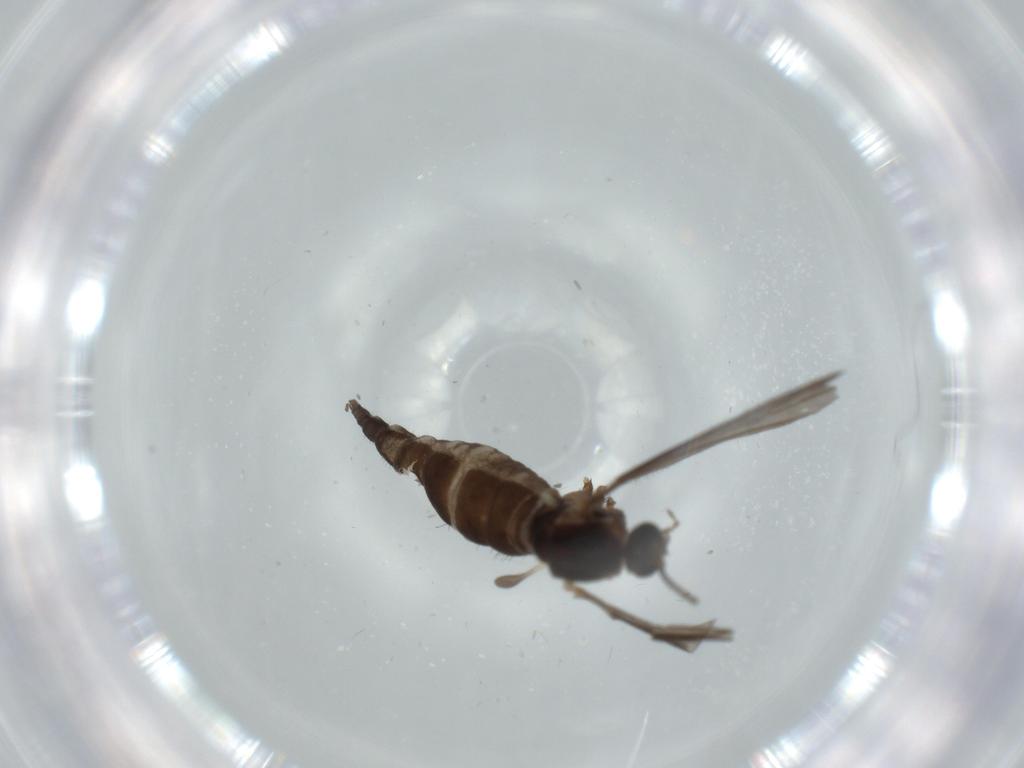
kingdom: Animalia
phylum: Arthropoda
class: Insecta
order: Diptera
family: Sciaridae
